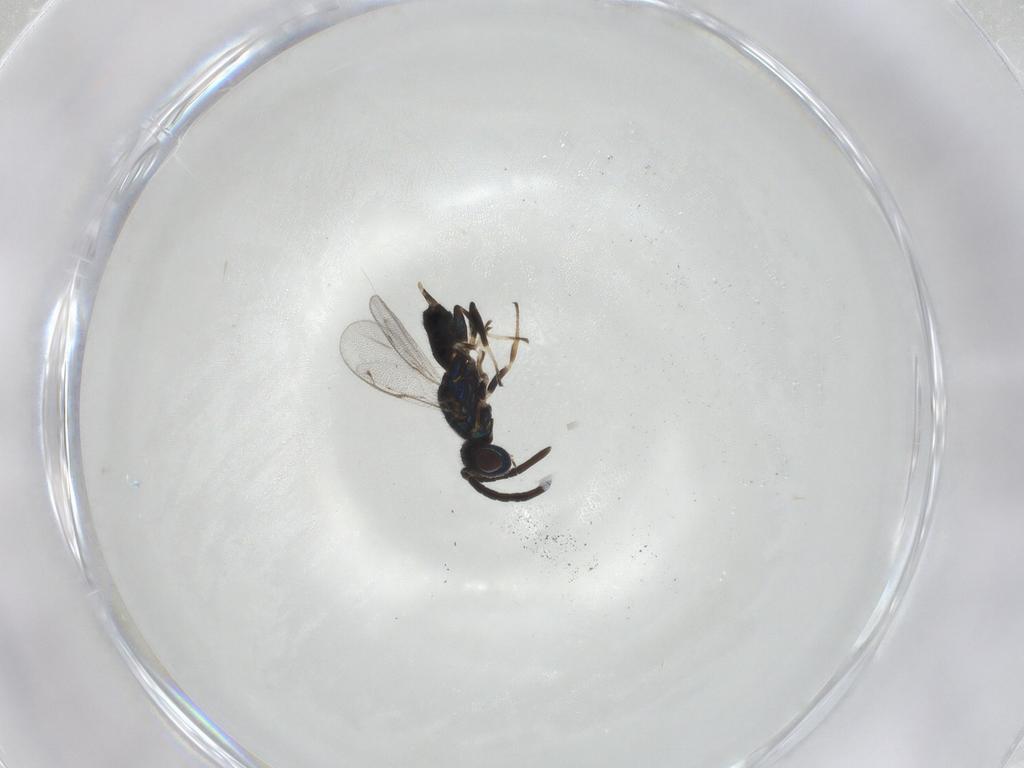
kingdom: Animalia
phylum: Arthropoda
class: Insecta
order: Hymenoptera
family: Eupelmidae
